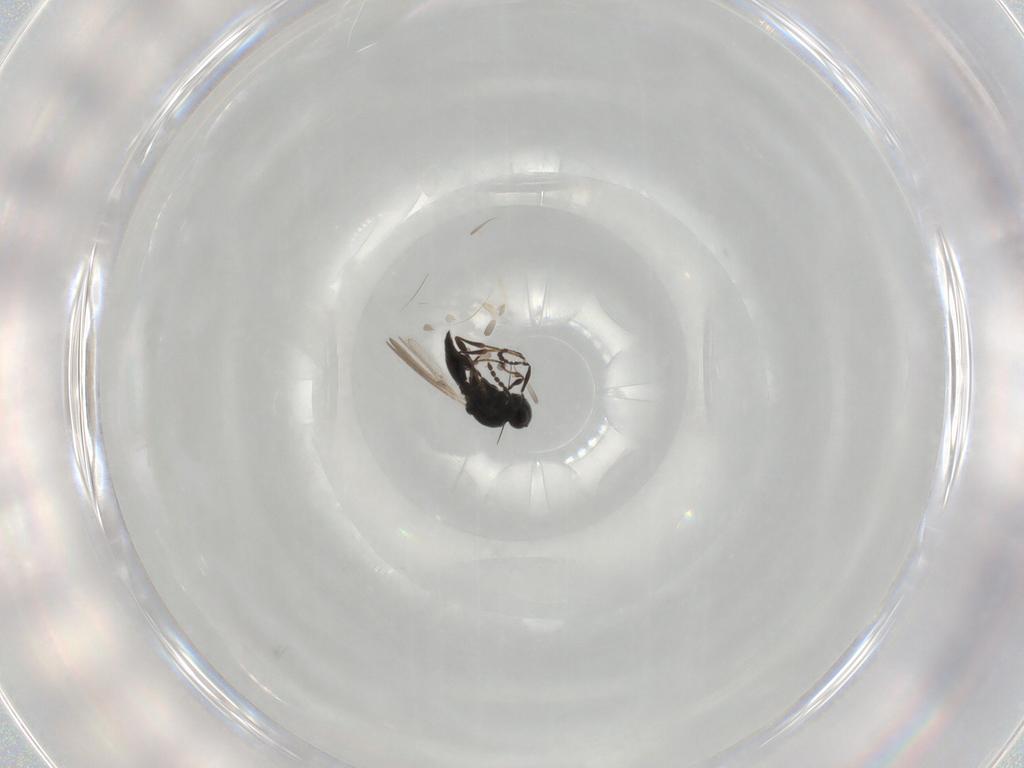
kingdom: Animalia
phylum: Arthropoda
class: Insecta
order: Hymenoptera
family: Platygastridae
